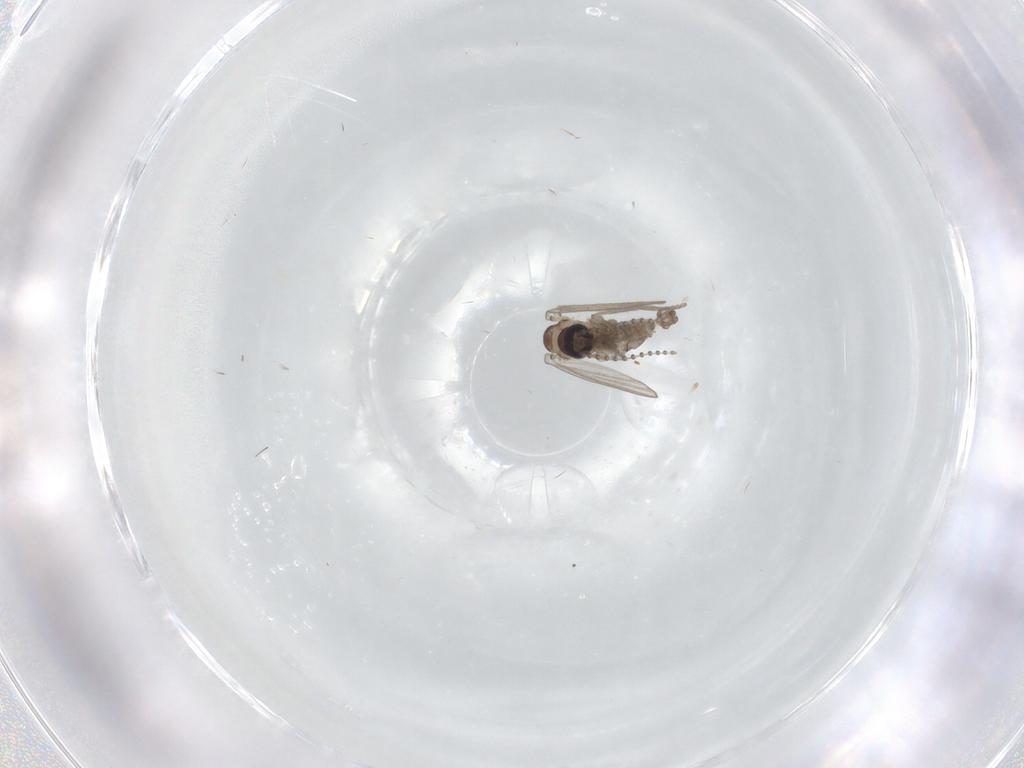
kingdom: Animalia
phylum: Arthropoda
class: Insecta
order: Diptera
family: Psychodidae
